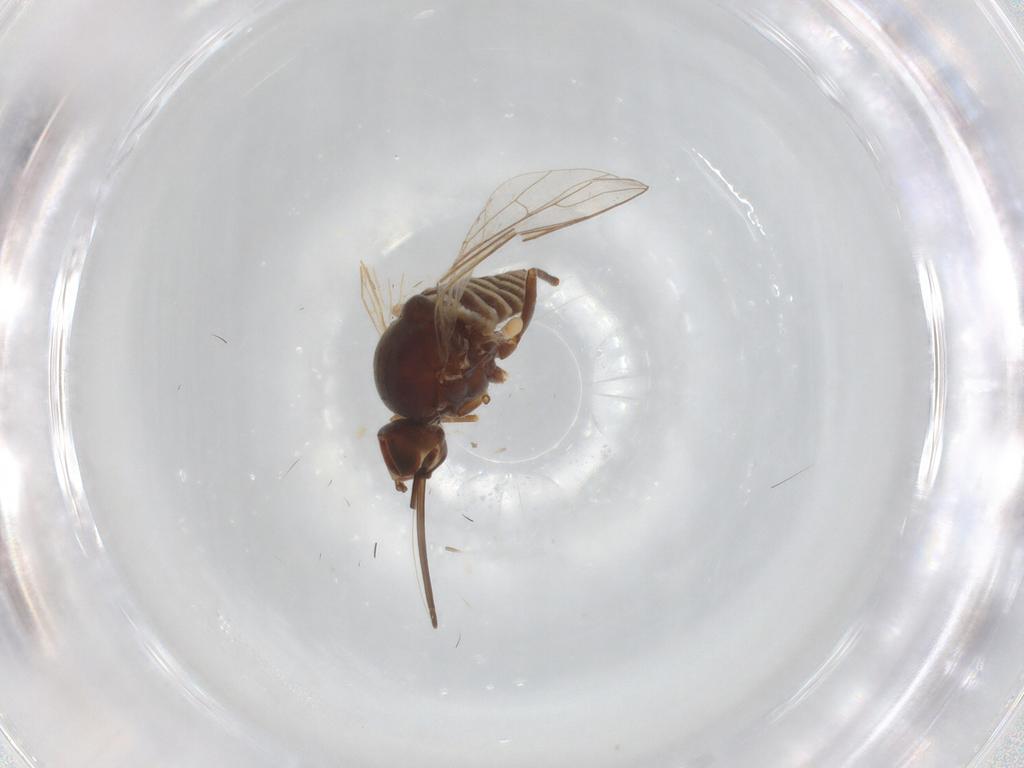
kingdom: Animalia
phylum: Arthropoda
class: Insecta
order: Diptera
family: Bombyliidae
